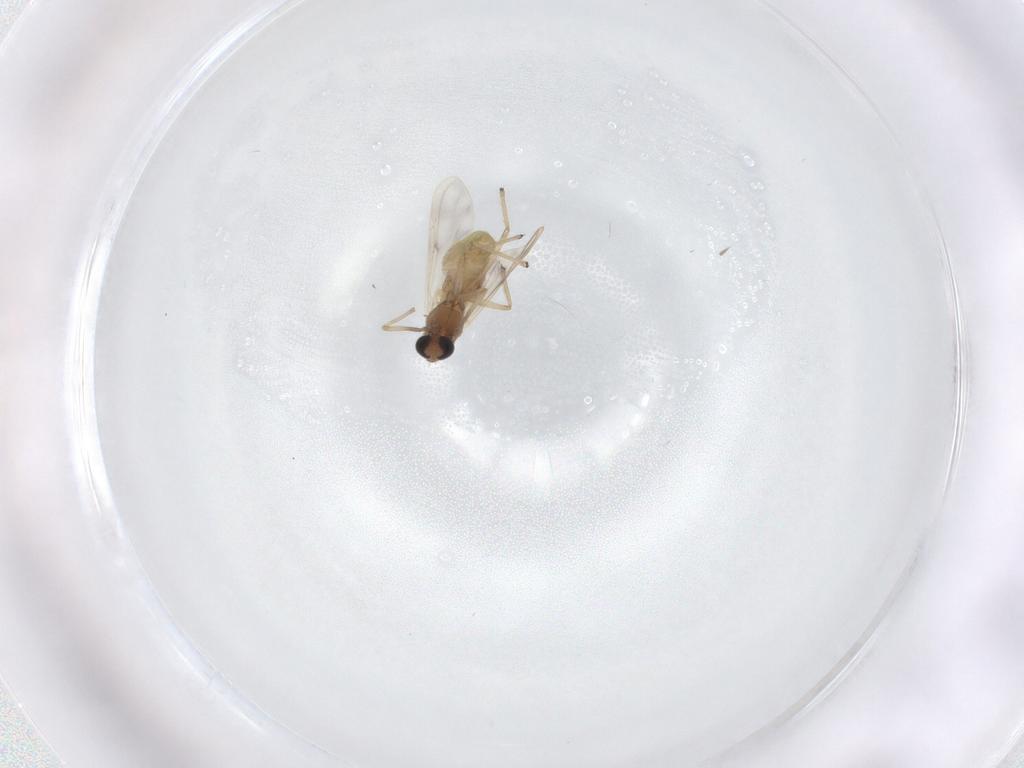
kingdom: Animalia
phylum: Arthropoda
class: Insecta
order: Diptera
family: Chironomidae
